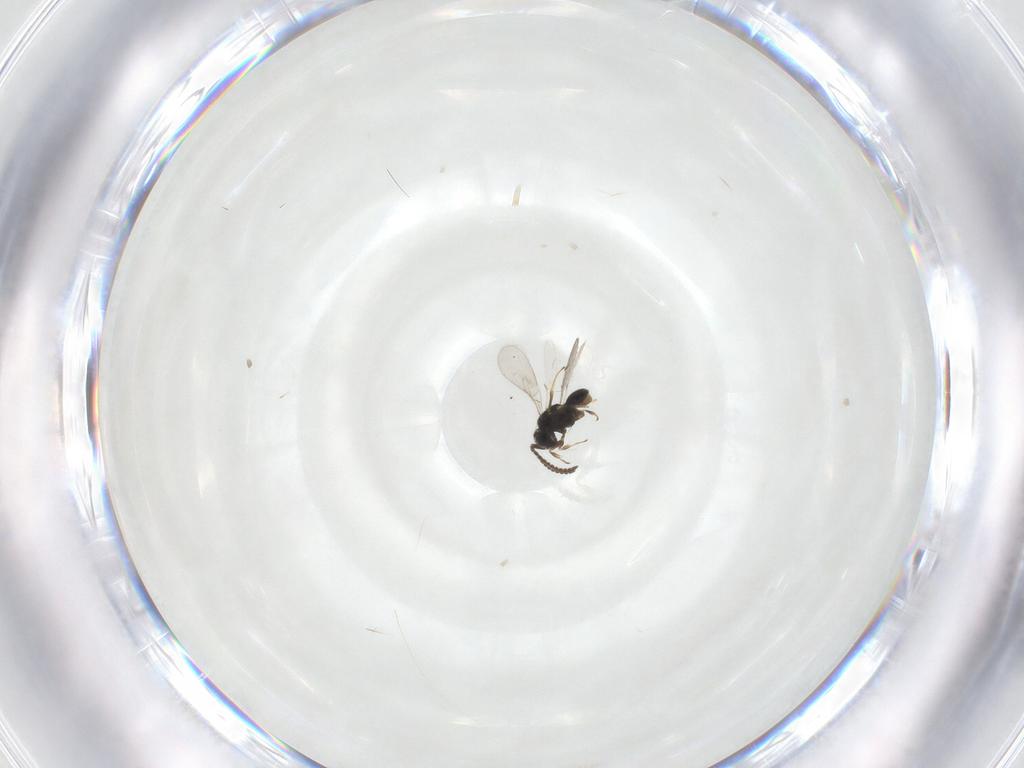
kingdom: Animalia
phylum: Arthropoda
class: Insecta
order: Hymenoptera
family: Scelionidae
